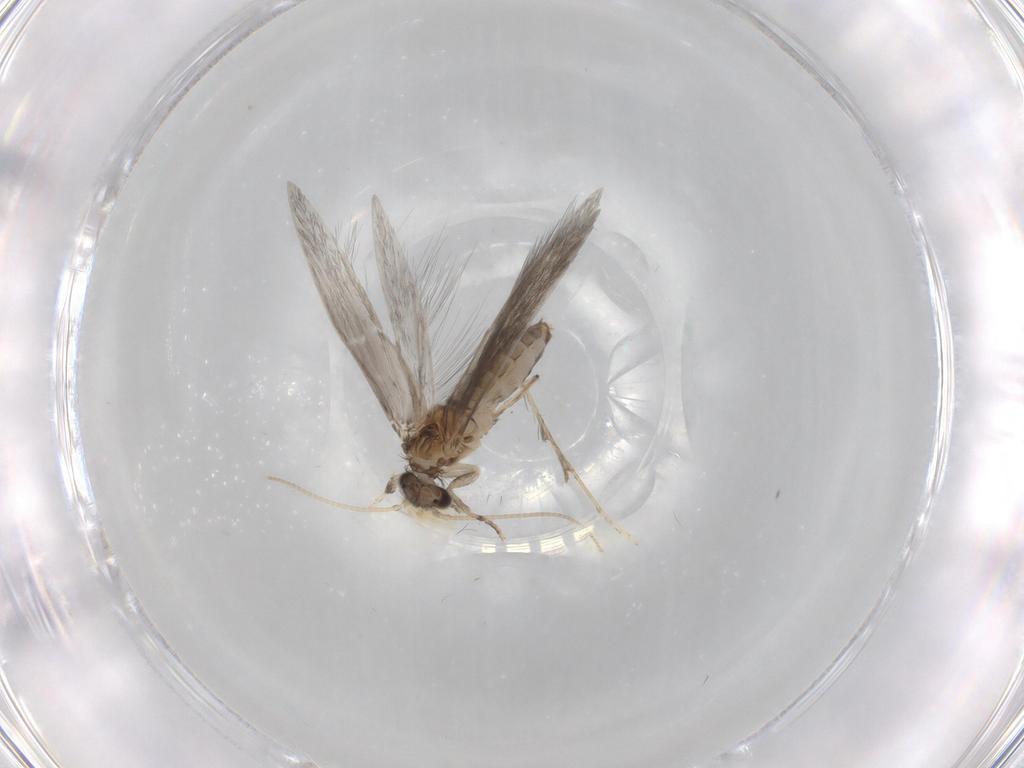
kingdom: Animalia
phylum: Arthropoda
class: Insecta
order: Trichoptera
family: Hydroptilidae
